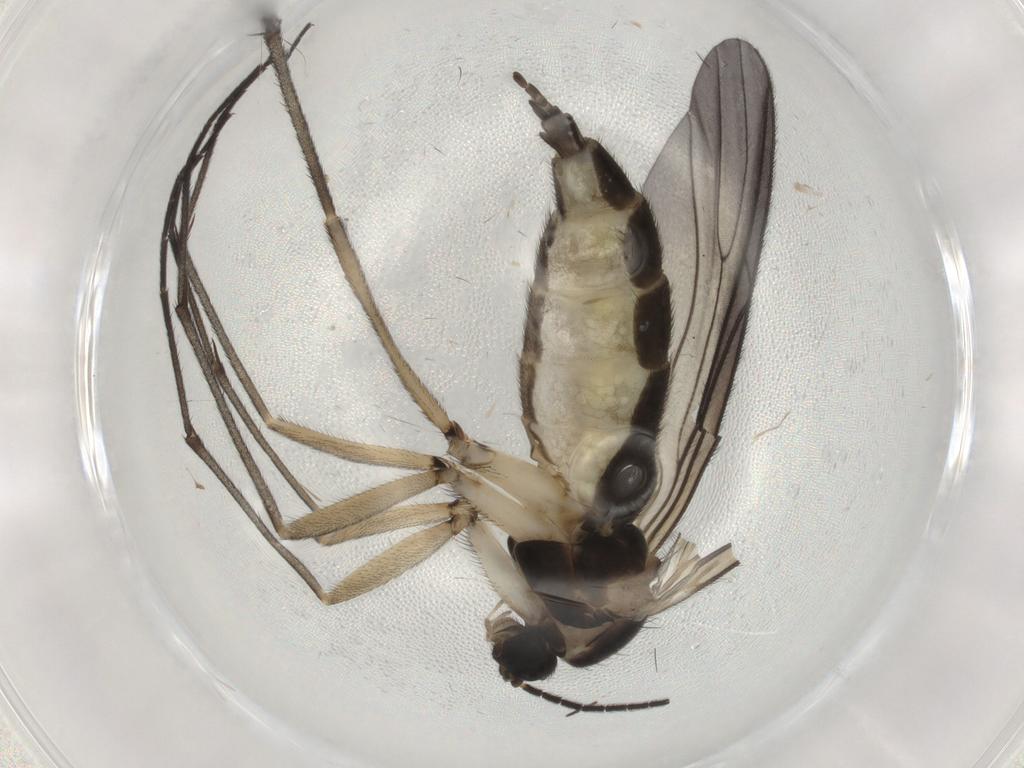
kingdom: Animalia
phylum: Arthropoda
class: Insecta
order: Diptera
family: Sciaridae
